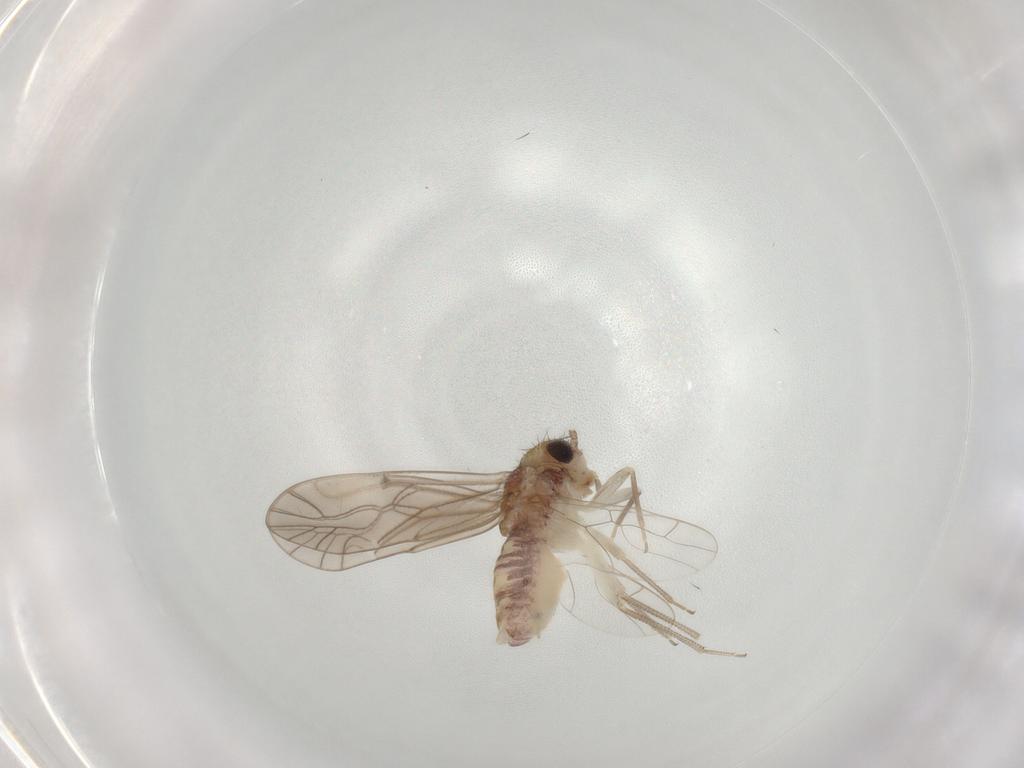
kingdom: Animalia
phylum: Arthropoda
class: Insecta
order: Psocodea
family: Caeciliusidae
